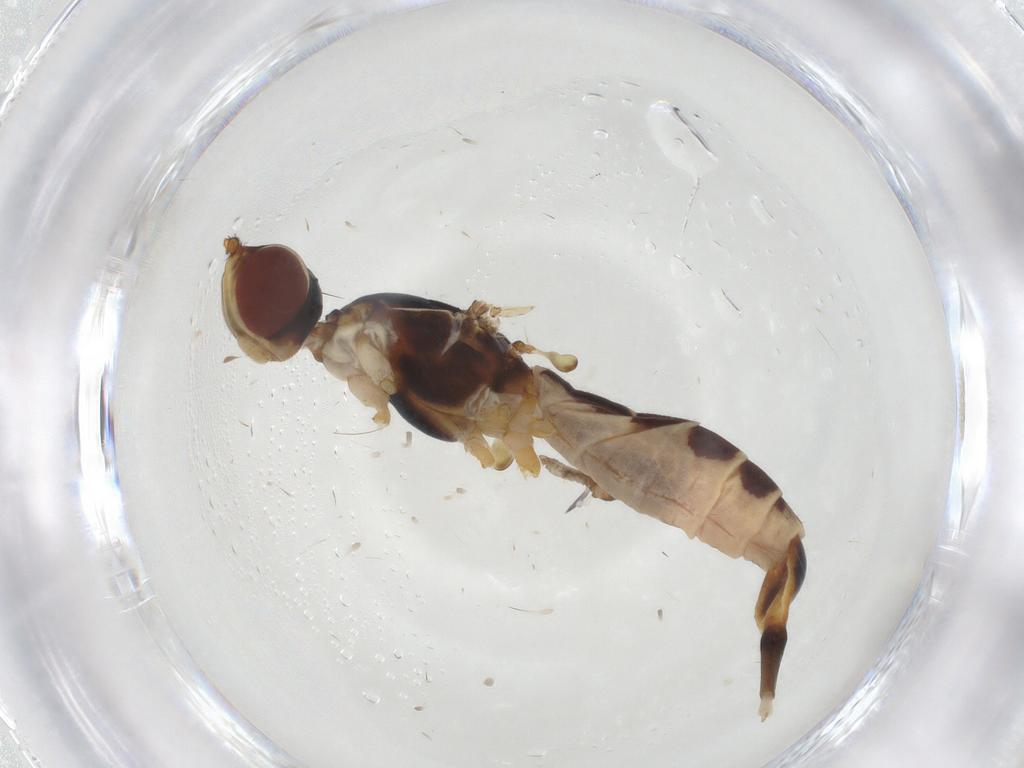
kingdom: Animalia
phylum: Arthropoda
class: Insecta
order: Diptera
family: Micropezidae
